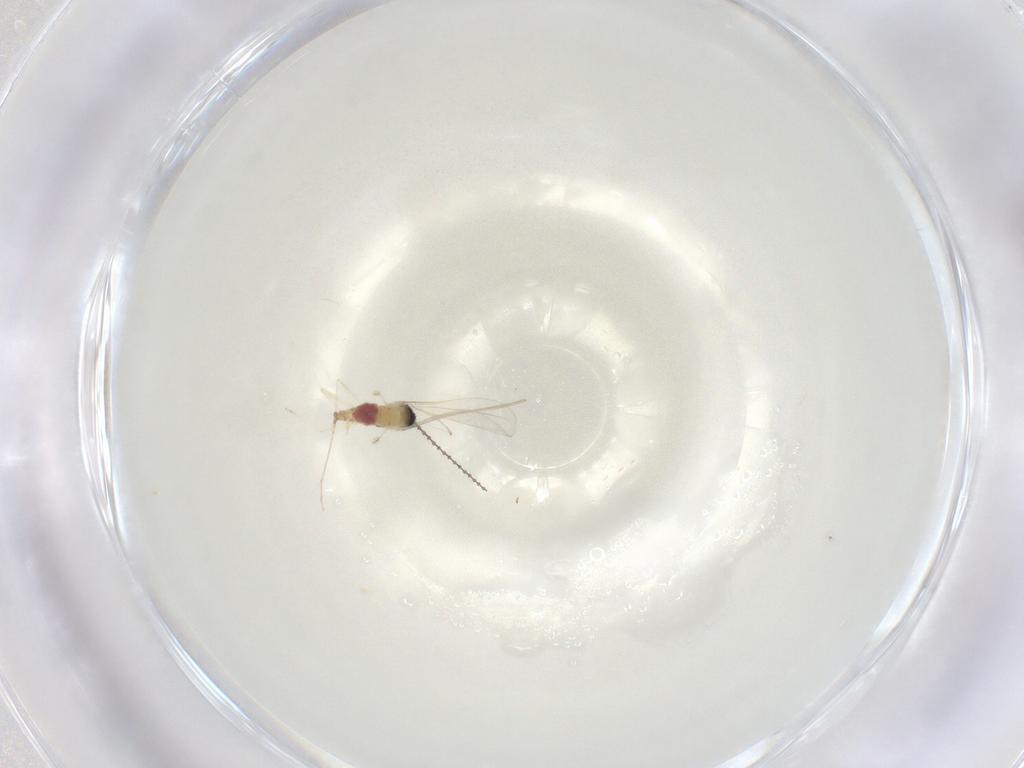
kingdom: Animalia
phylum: Arthropoda
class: Insecta
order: Diptera
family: Cecidomyiidae
